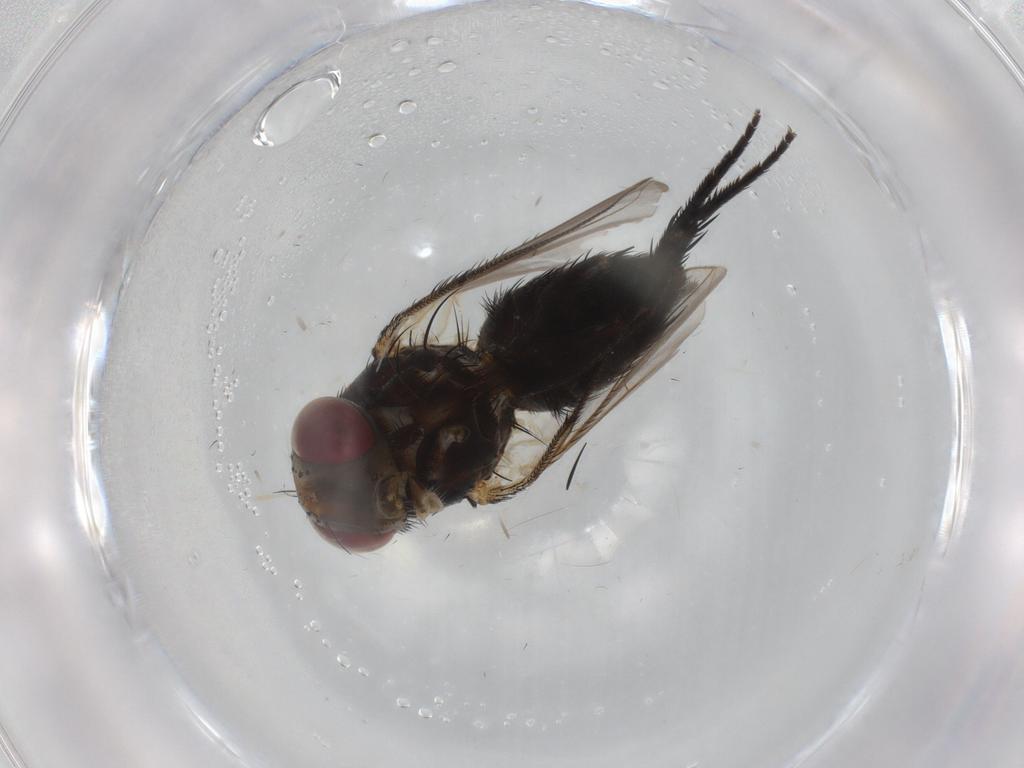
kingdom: Animalia
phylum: Arthropoda
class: Insecta
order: Diptera
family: Tachinidae
